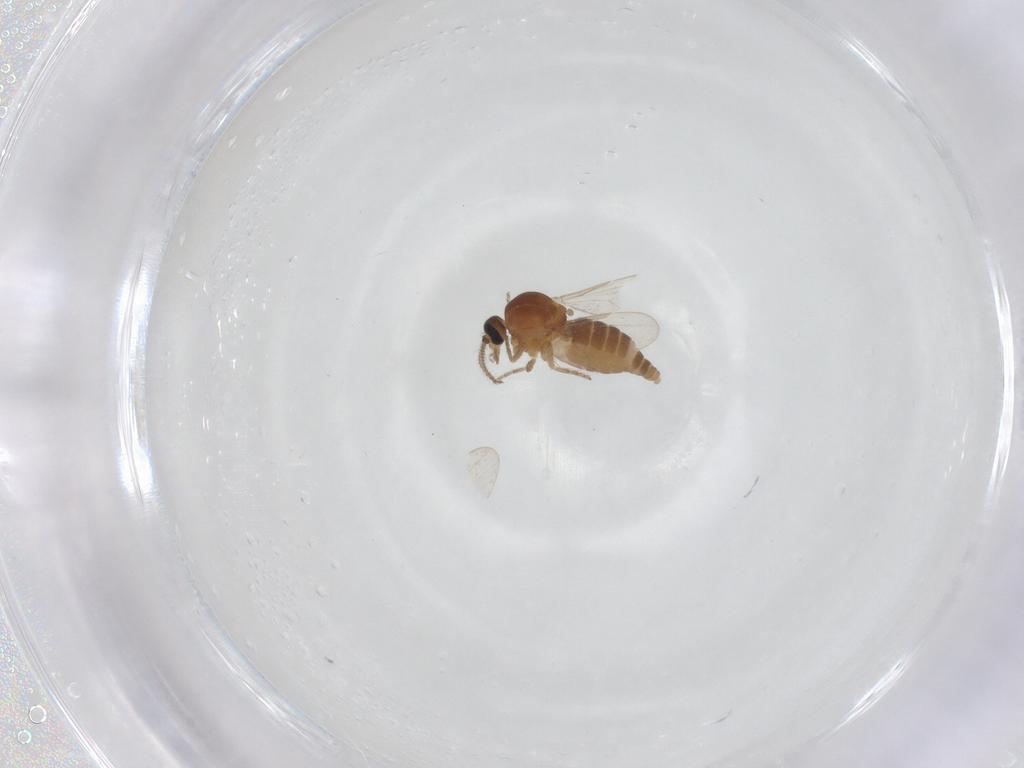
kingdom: Animalia
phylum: Arthropoda
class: Insecta
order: Diptera
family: Ceratopogonidae
